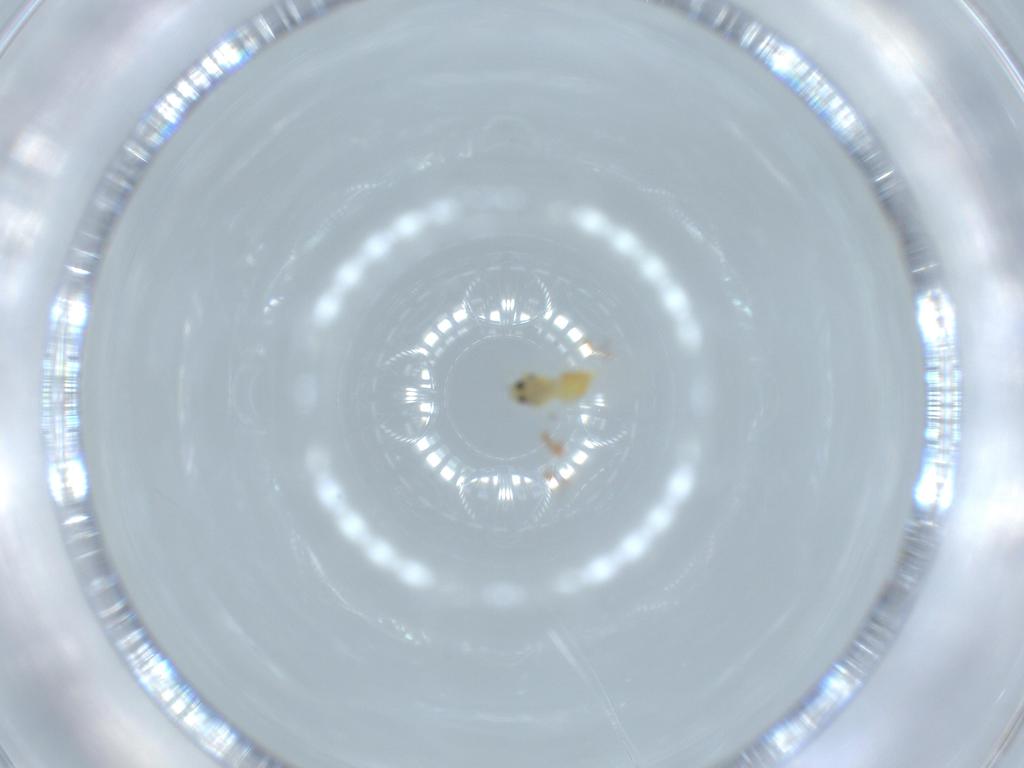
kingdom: Animalia
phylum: Arthropoda
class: Insecta
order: Hemiptera
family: Aleyrodidae
